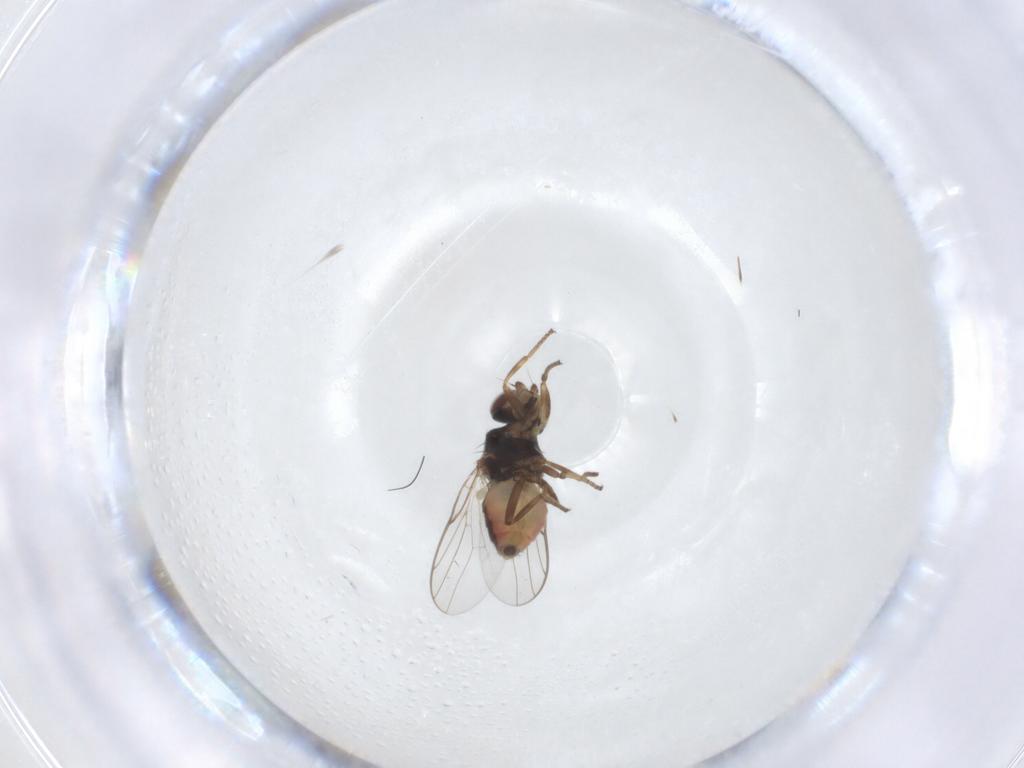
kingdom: Animalia
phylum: Arthropoda
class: Insecta
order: Diptera
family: Chloropidae
